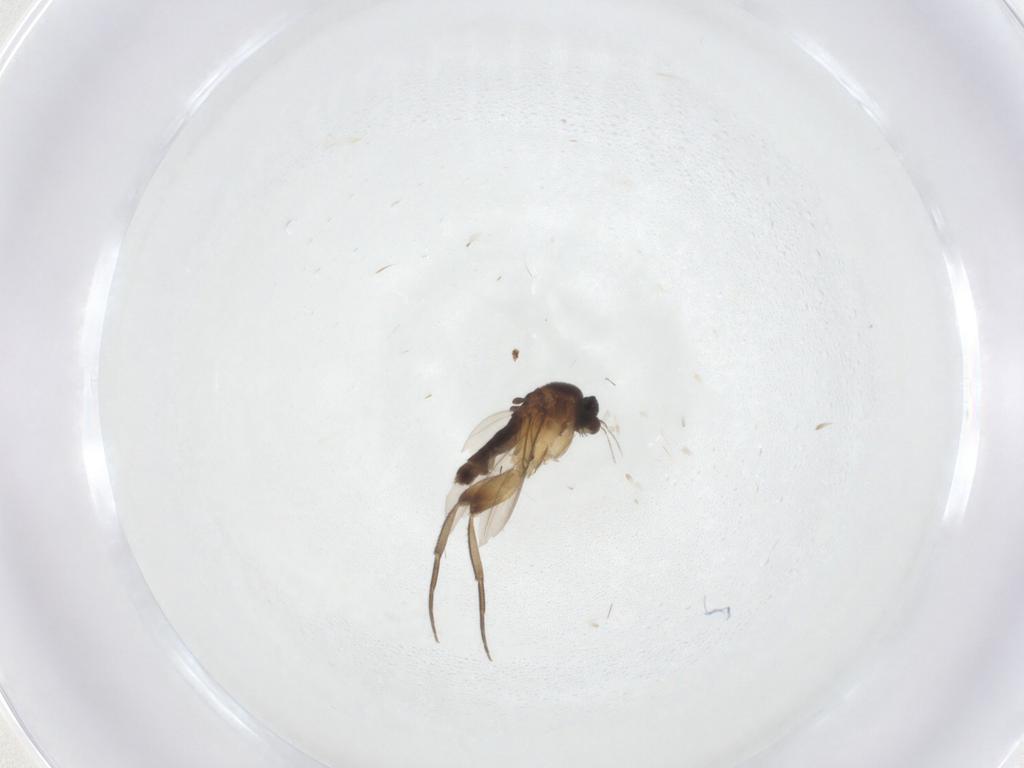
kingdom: Animalia
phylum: Arthropoda
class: Insecta
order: Diptera
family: Phoridae
